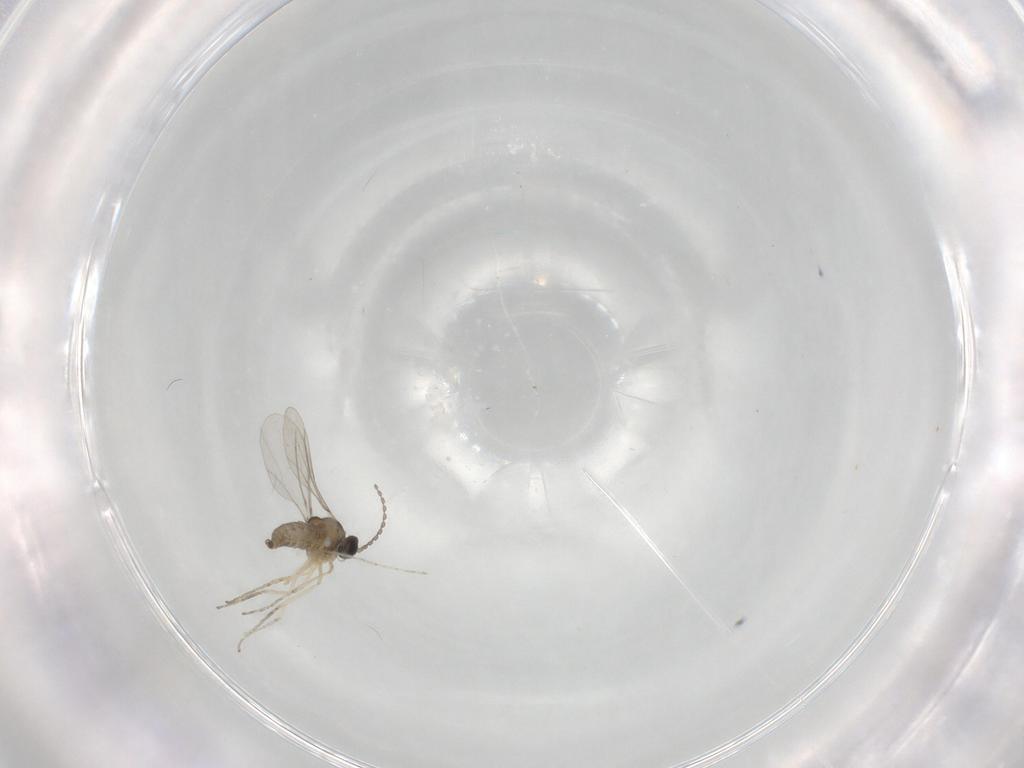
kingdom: Animalia
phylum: Arthropoda
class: Insecta
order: Diptera
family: Cecidomyiidae
